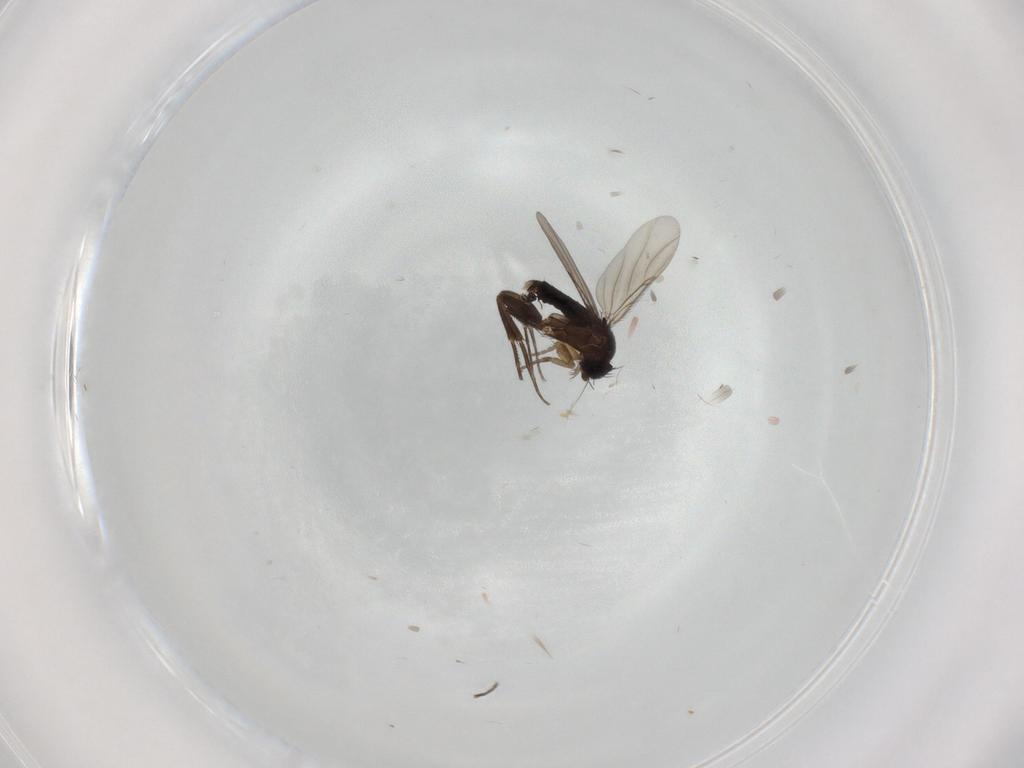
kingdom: Animalia
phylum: Arthropoda
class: Insecta
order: Diptera
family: Phoridae
